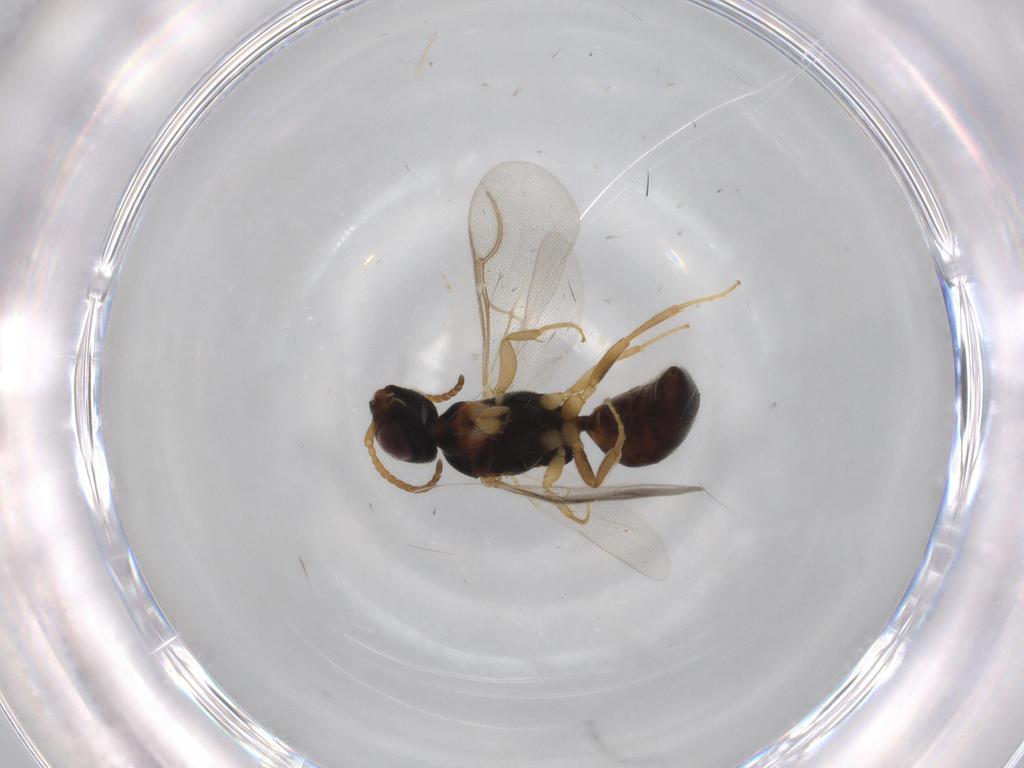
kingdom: Animalia
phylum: Arthropoda
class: Insecta
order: Hymenoptera
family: Bethylidae
